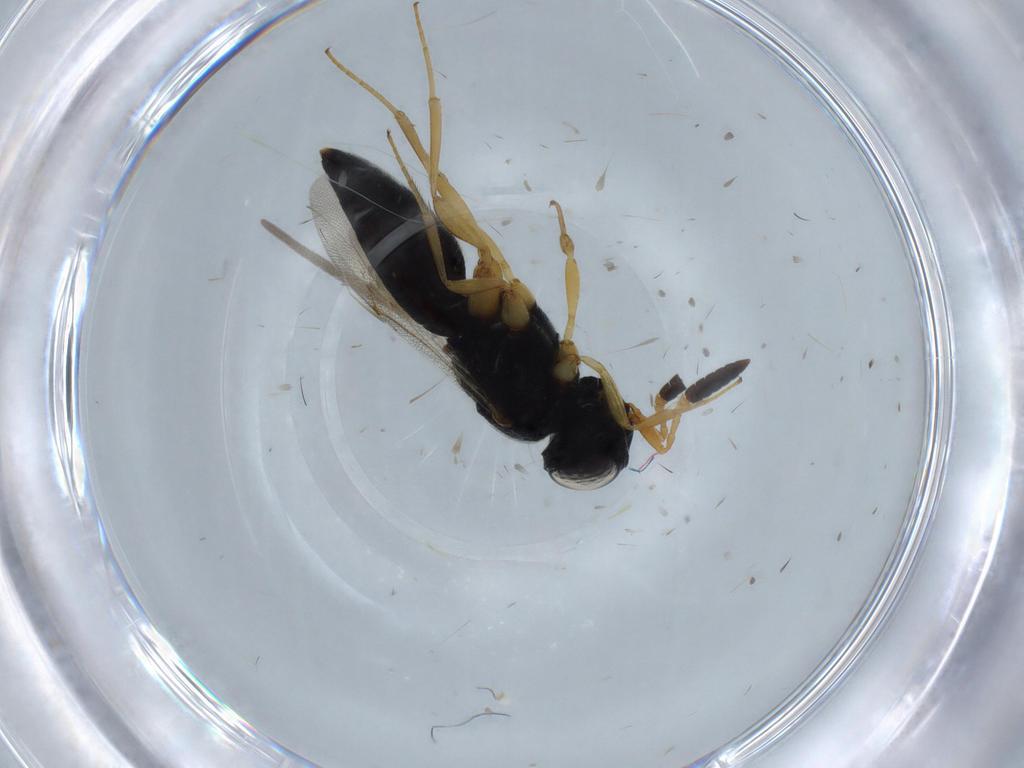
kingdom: Animalia
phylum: Arthropoda
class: Insecta
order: Hymenoptera
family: Scelionidae
